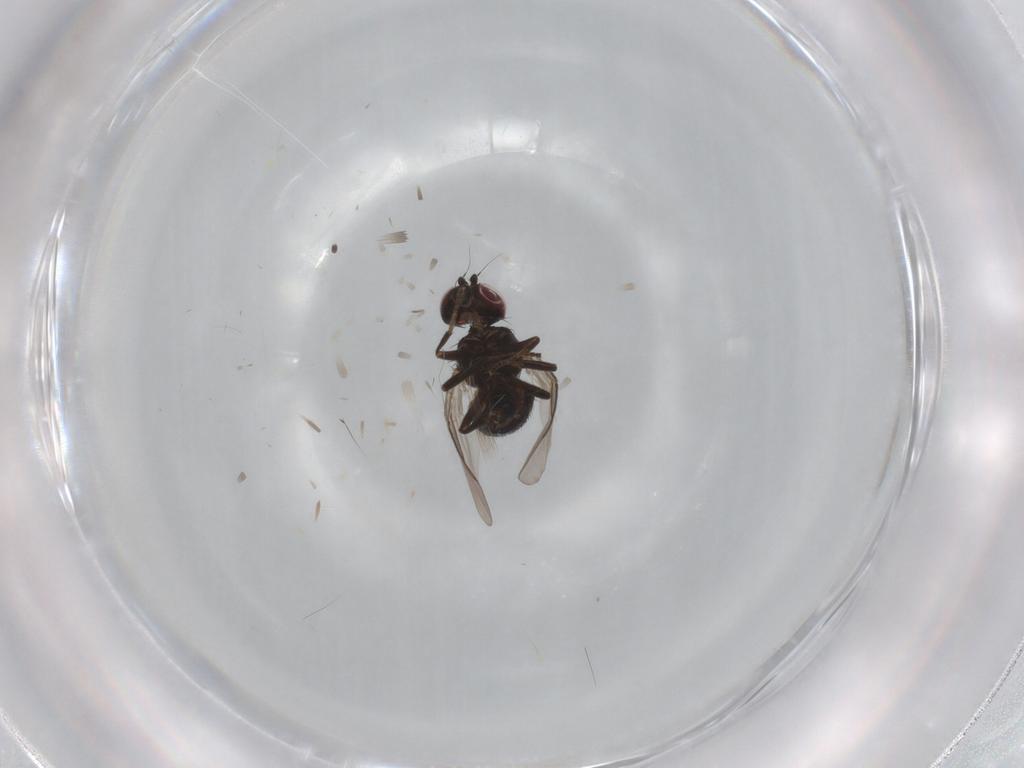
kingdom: Animalia
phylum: Arthropoda
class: Insecta
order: Diptera
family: Agromyzidae
